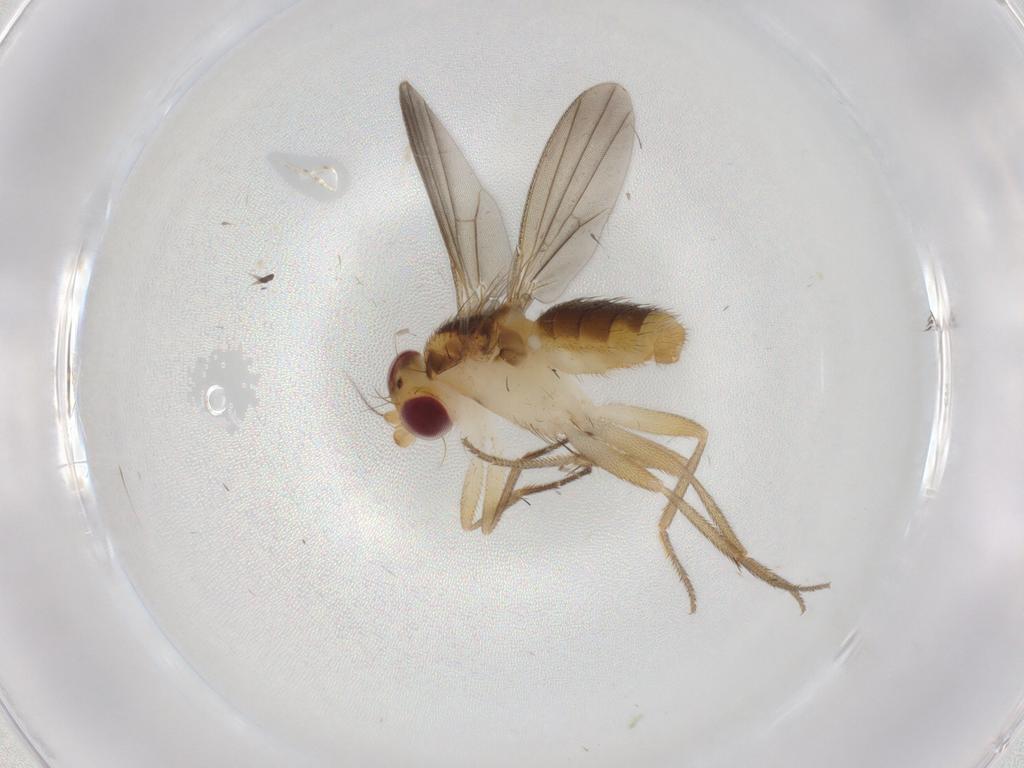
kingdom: Animalia
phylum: Arthropoda
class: Insecta
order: Diptera
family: Clusiidae
